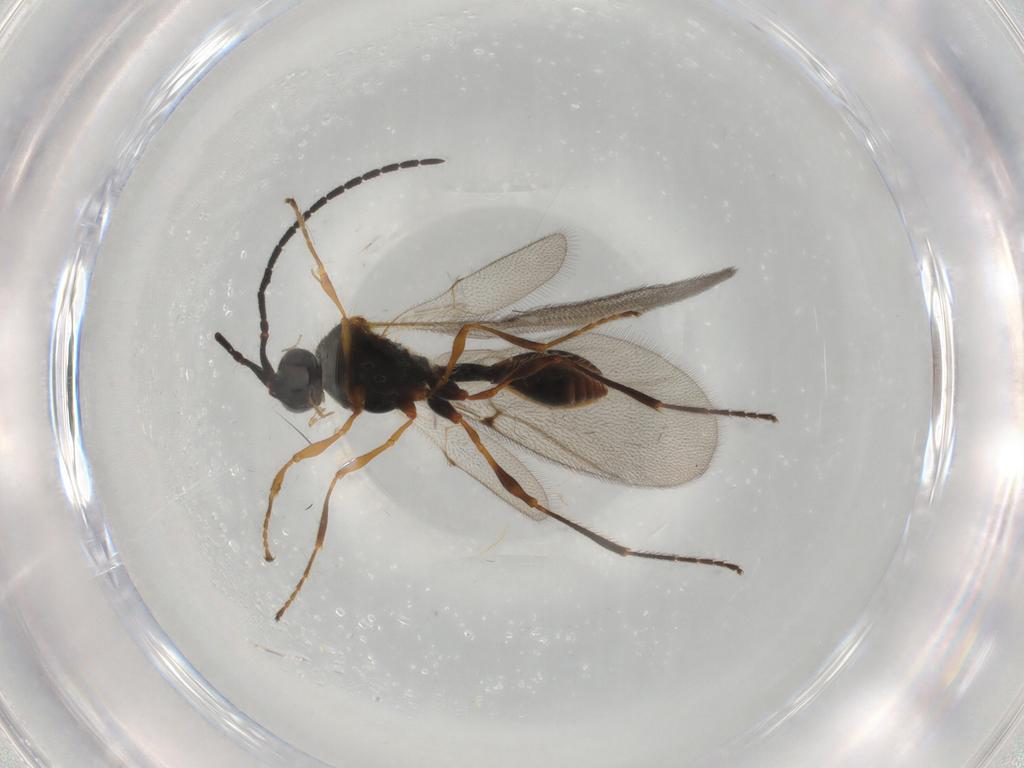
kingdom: Animalia
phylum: Arthropoda
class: Insecta
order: Hymenoptera
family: Diapriidae
